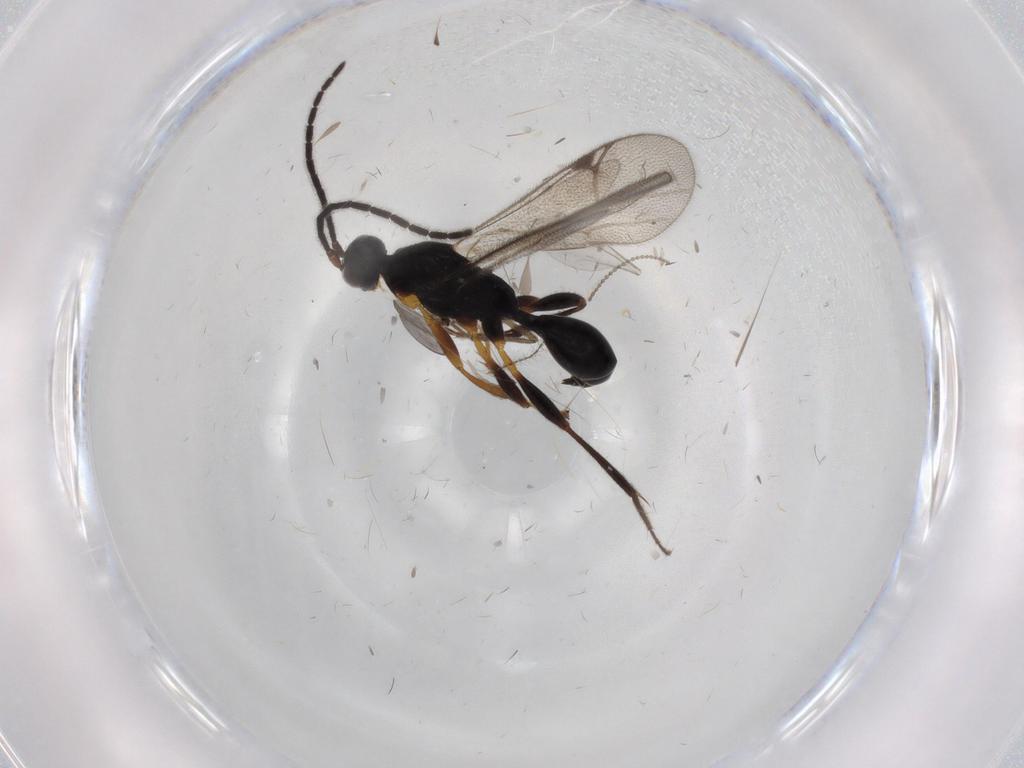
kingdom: Animalia
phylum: Arthropoda
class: Insecta
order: Hymenoptera
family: Proctotrupidae
